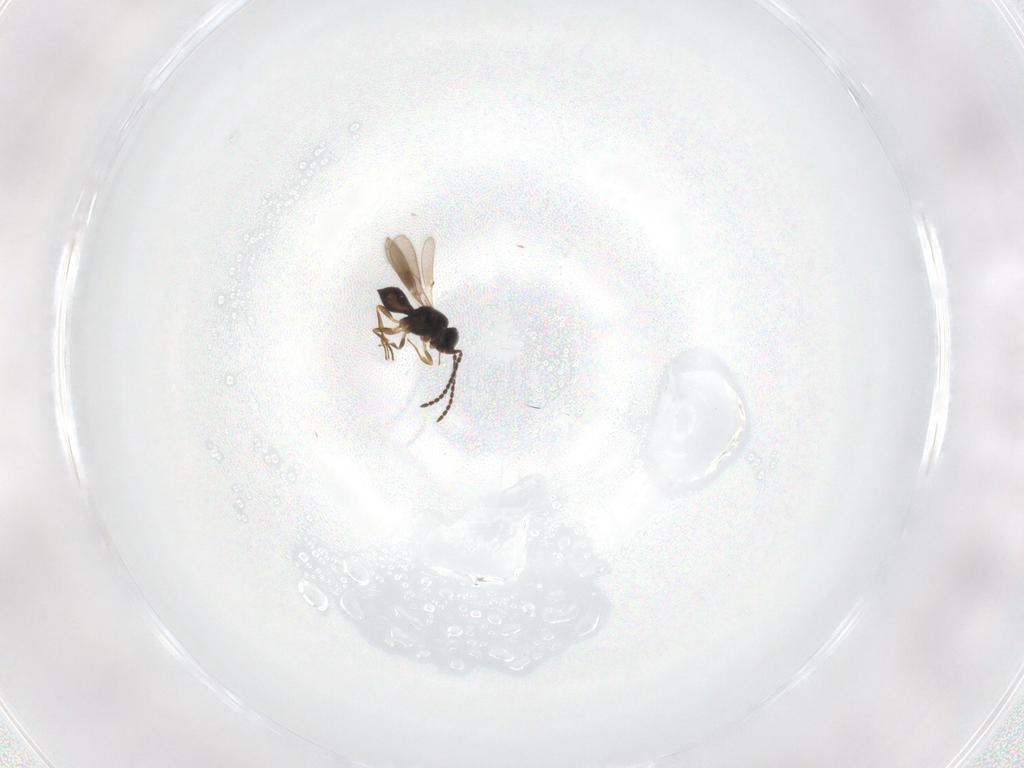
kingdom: Animalia
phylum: Arthropoda
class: Insecta
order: Hymenoptera
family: Scelionidae
